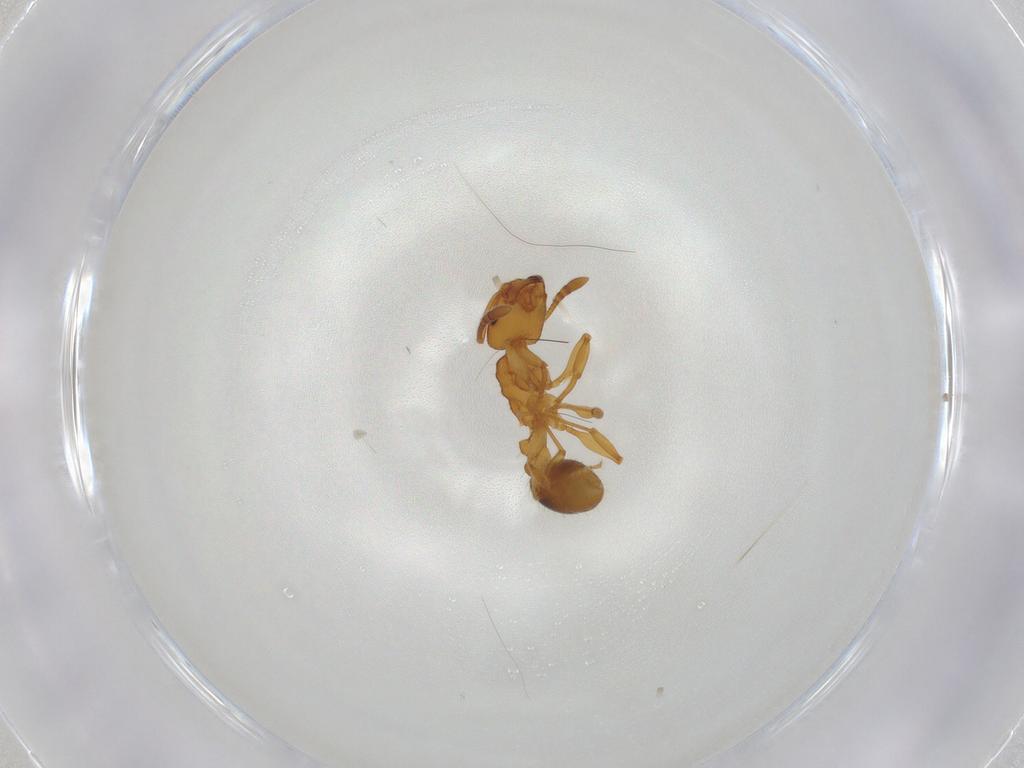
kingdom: Animalia
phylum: Arthropoda
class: Insecta
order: Hymenoptera
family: Formicidae
